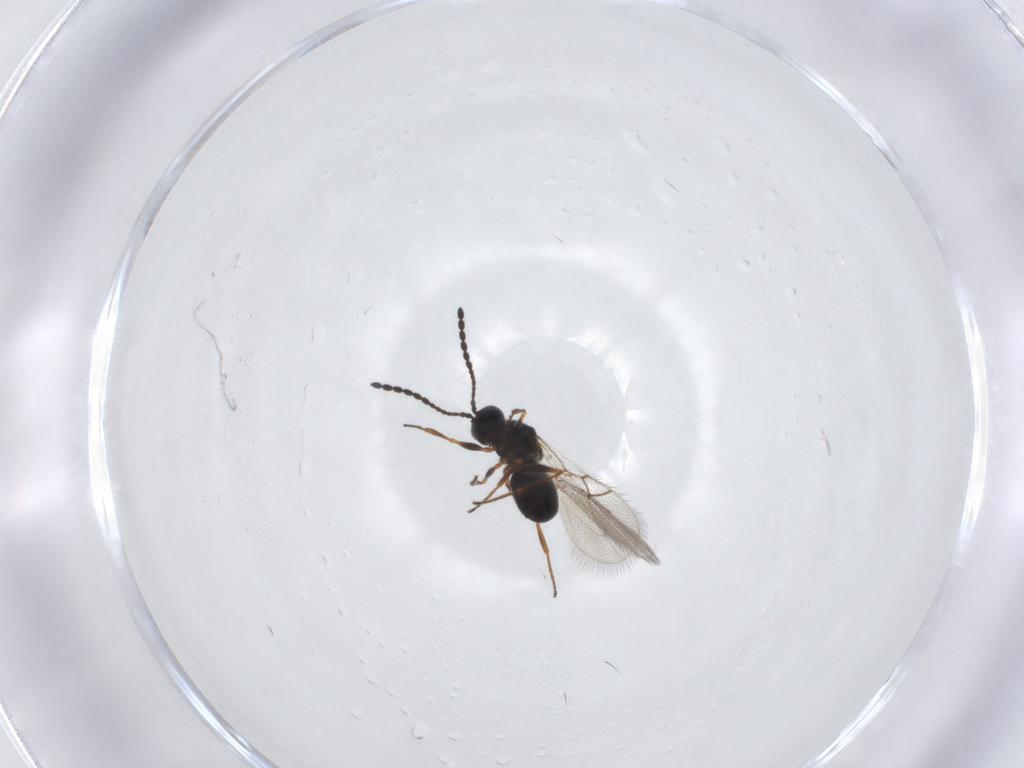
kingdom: Animalia
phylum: Arthropoda
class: Insecta
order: Hymenoptera
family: Figitidae
